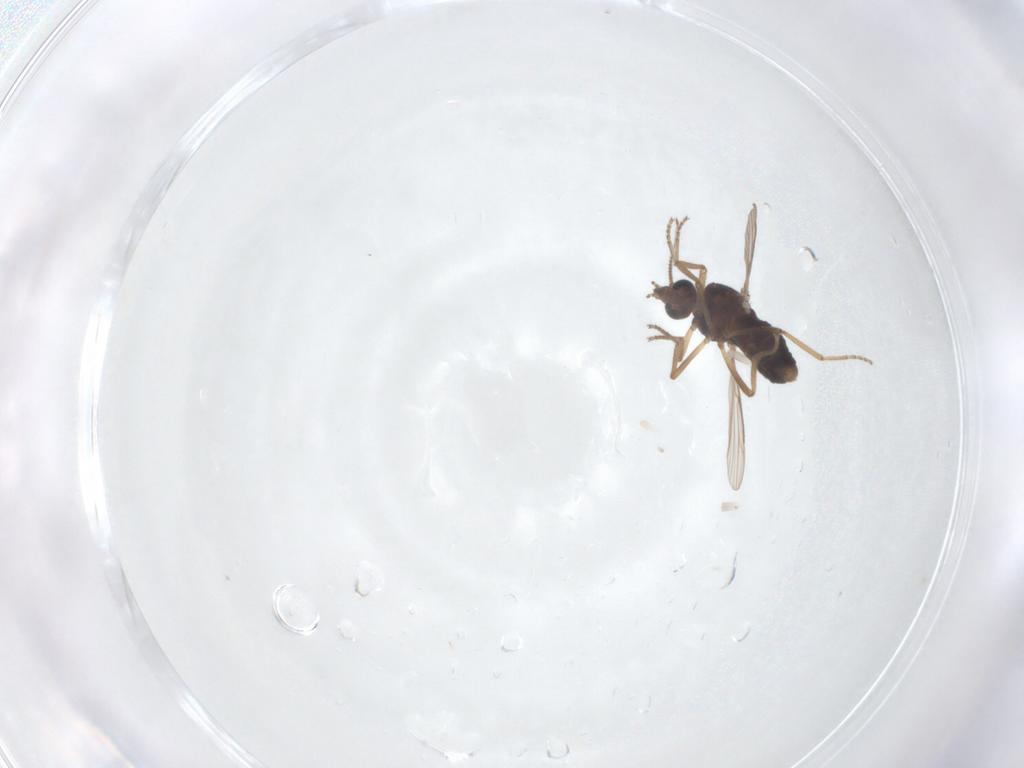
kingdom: Animalia
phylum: Arthropoda
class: Insecta
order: Diptera
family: Ceratopogonidae
